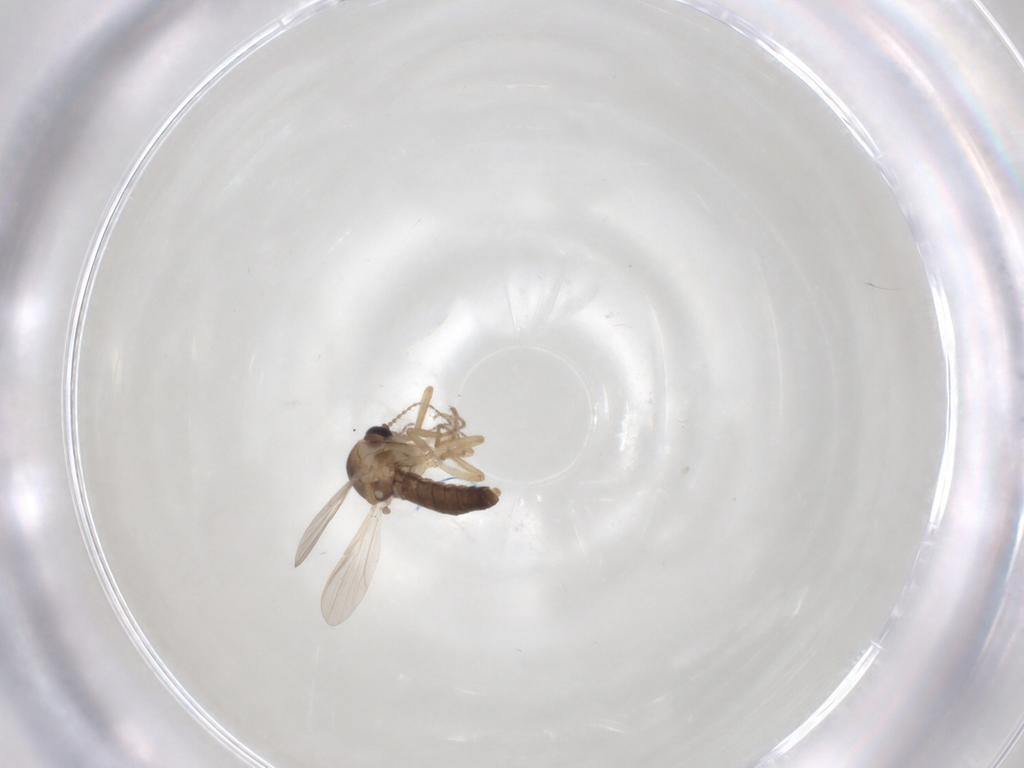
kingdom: Animalia
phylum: Arthropoda
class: Insecta
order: Diptera
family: Ceratopogonidae
